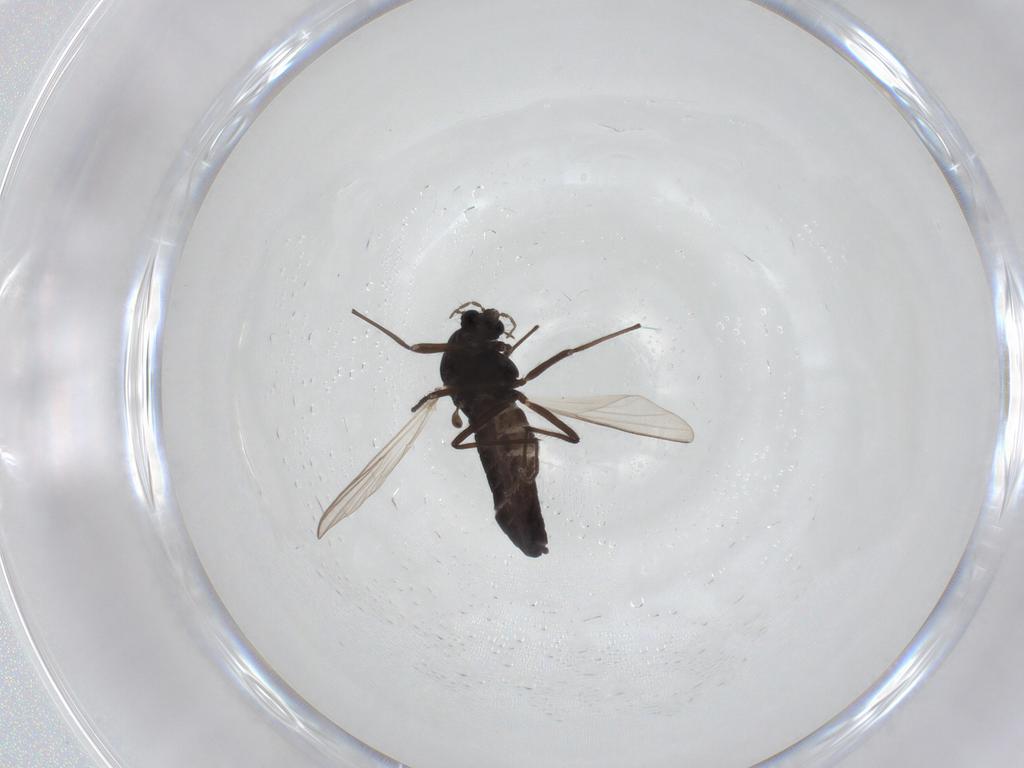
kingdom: Animalia
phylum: Arthropoda
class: Insecta
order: Diptera
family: Chironomidae
